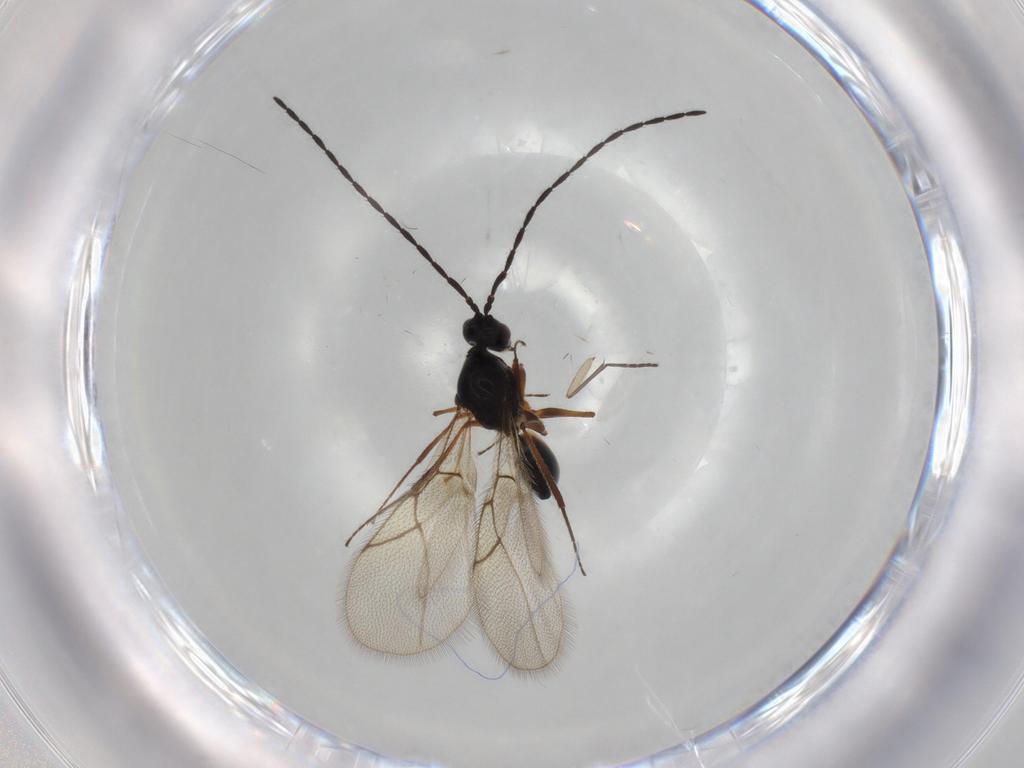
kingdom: Animalia
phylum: Arthropoda
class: Insecta
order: Hymenoptera
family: Figitidae
